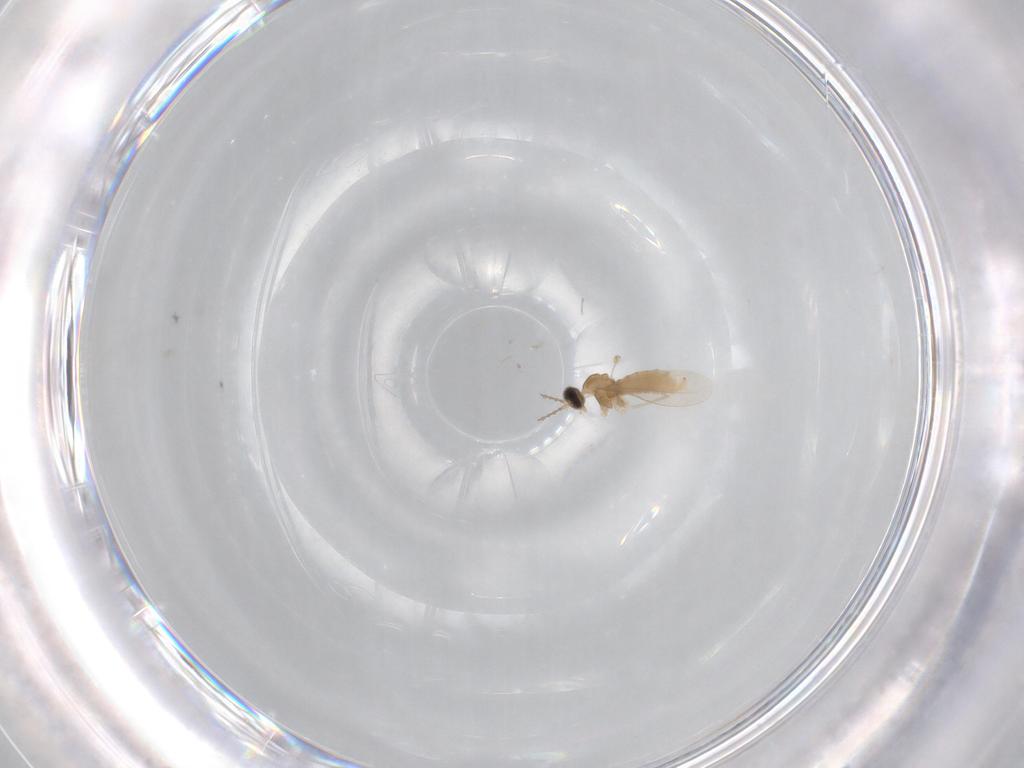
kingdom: Animalia
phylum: Arthropoda
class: Insecta
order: Diptera
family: Cecidomyiidae
